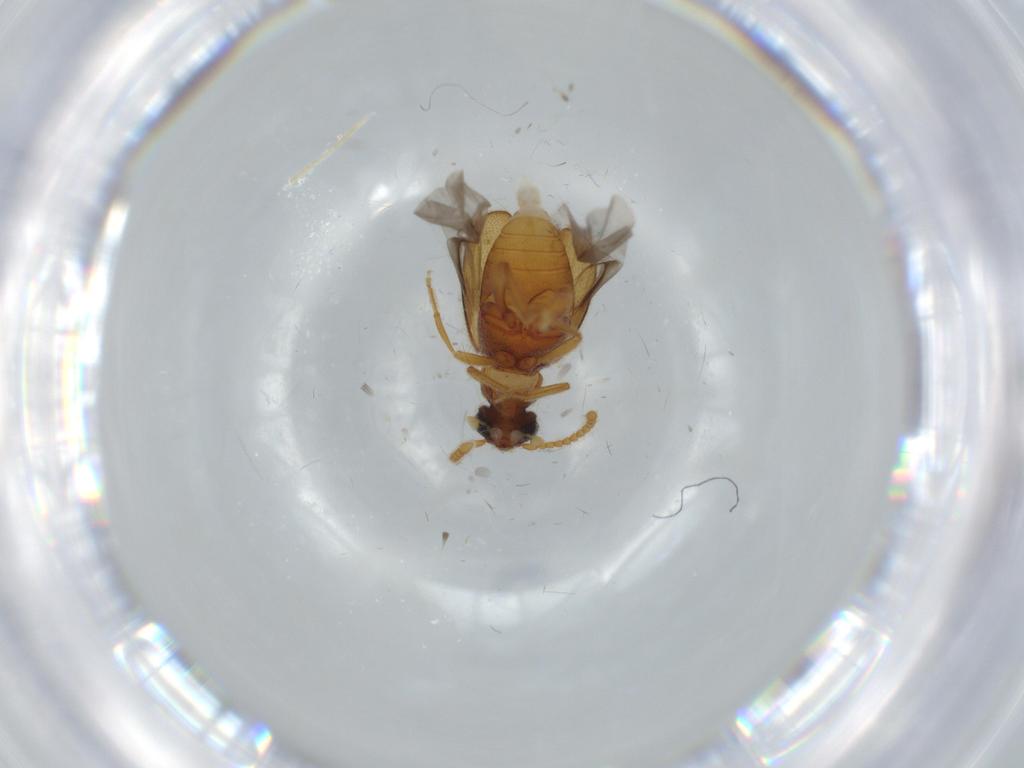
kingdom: Animalia
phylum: Arthropoda
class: Insecta
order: Coleoptera
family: Aderidae
